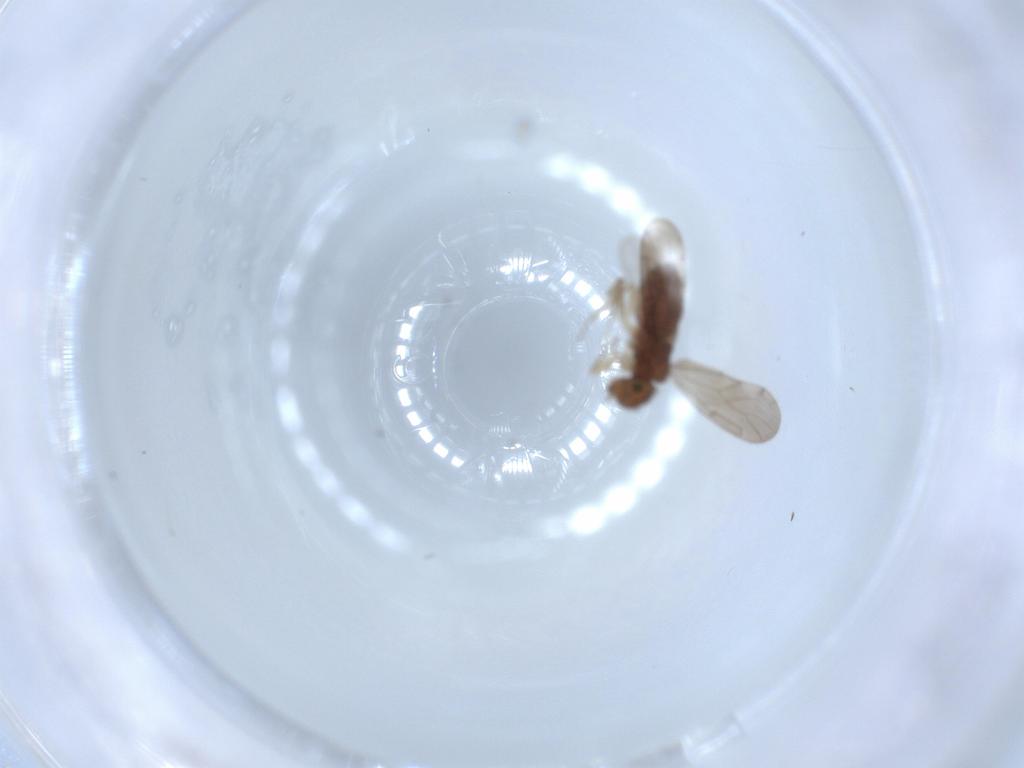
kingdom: Animalia
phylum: Arthropoda
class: Insecta
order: Psocodea
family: Ectopsocidae
